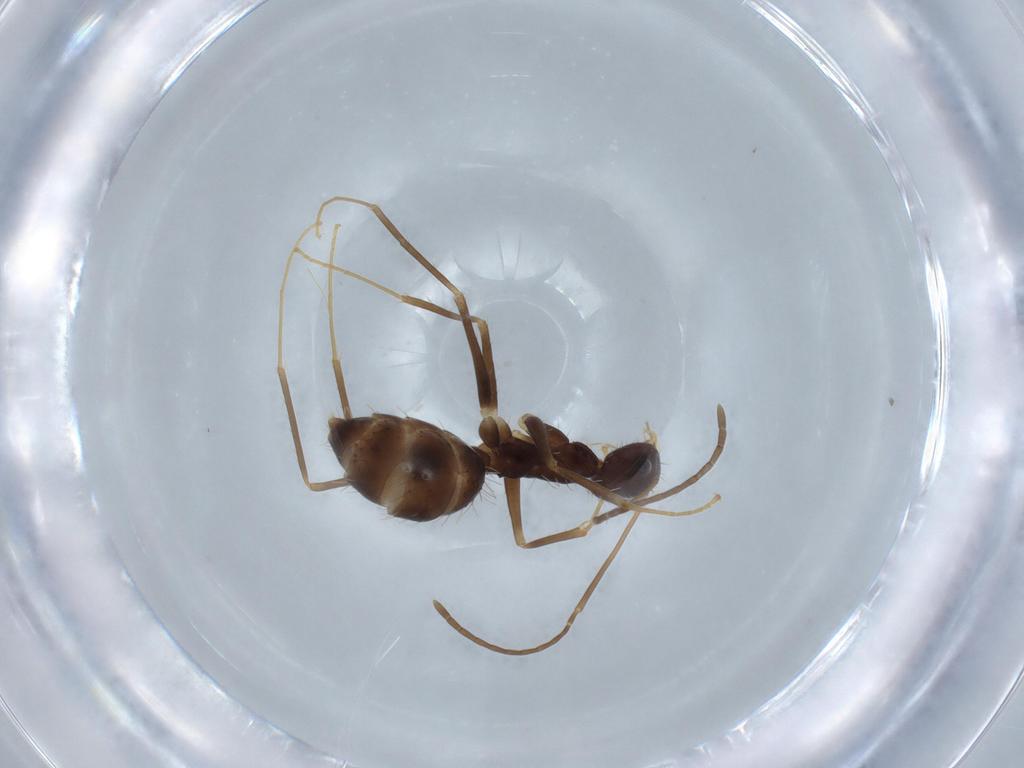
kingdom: Animalia
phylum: Arthropoda
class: Insecta
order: Hymenoptera
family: Formicidae
